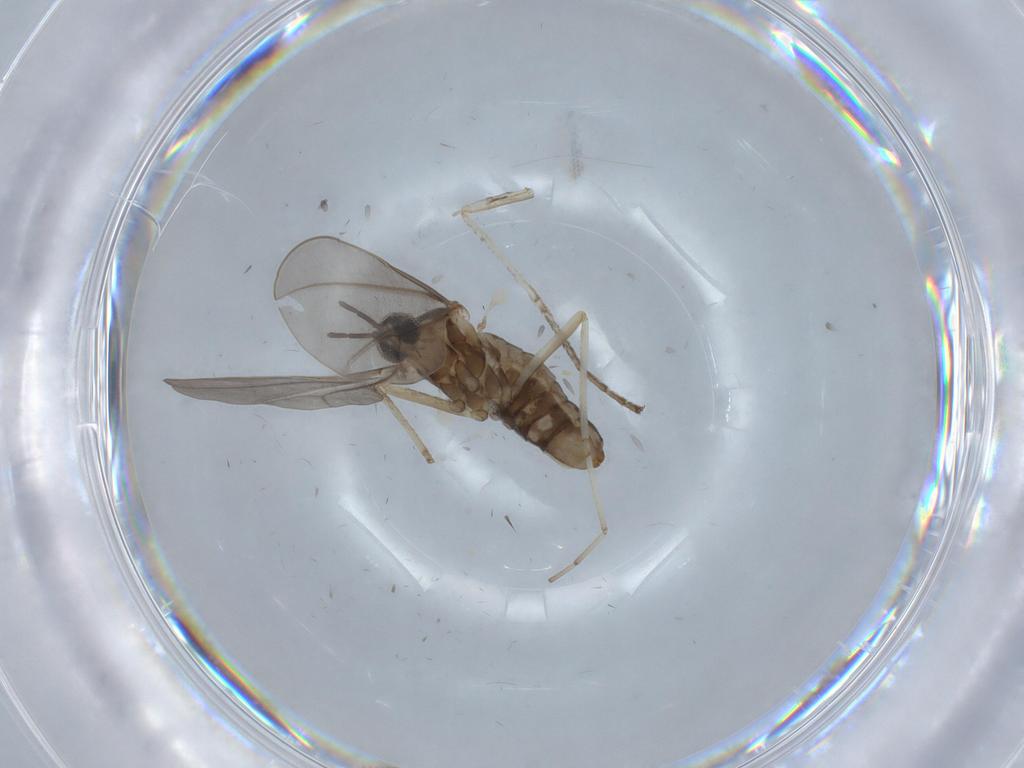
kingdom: Animalia
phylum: Arthropoda
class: Insecta
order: Diptera
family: Cecidomyiidae
